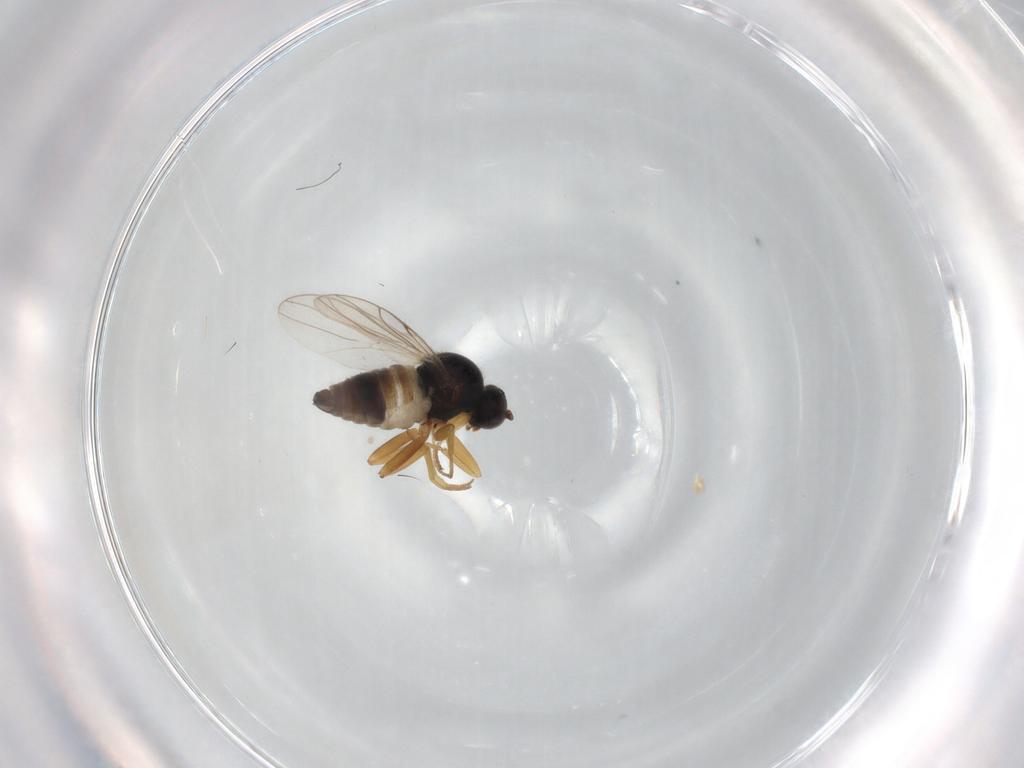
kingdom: Animalia
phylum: Arthropoda
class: Insecta
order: Diptera
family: Hybotidae
